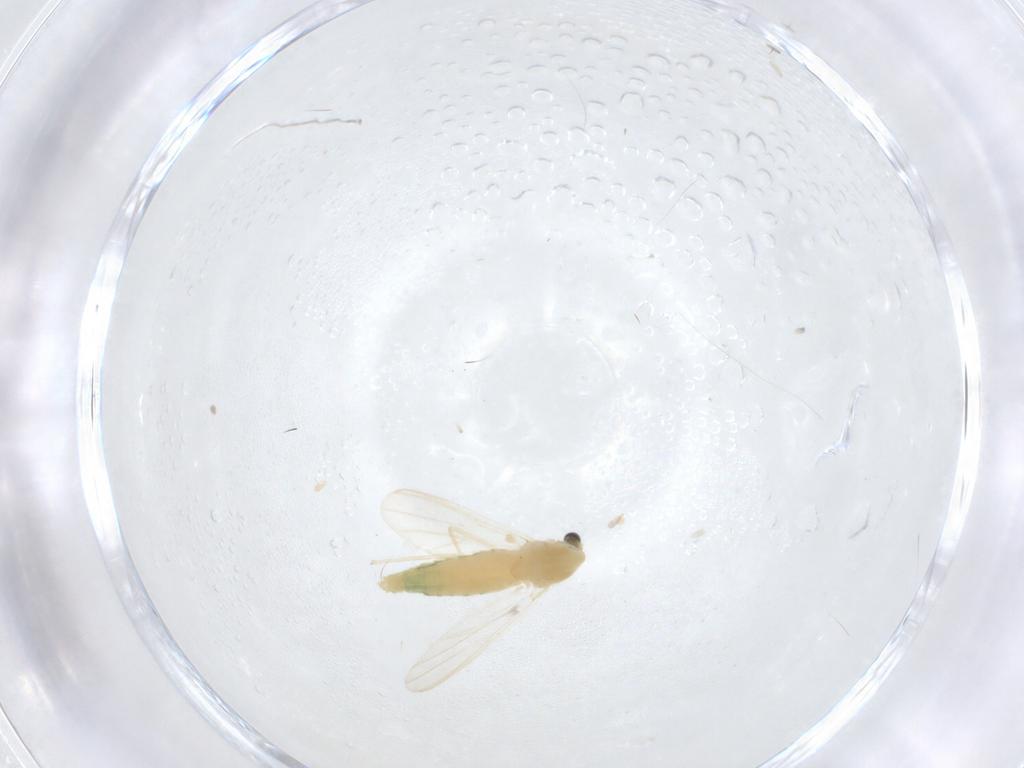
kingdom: Animalia
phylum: Arthropoda
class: Insecta
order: Diptera
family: Chironomidae
